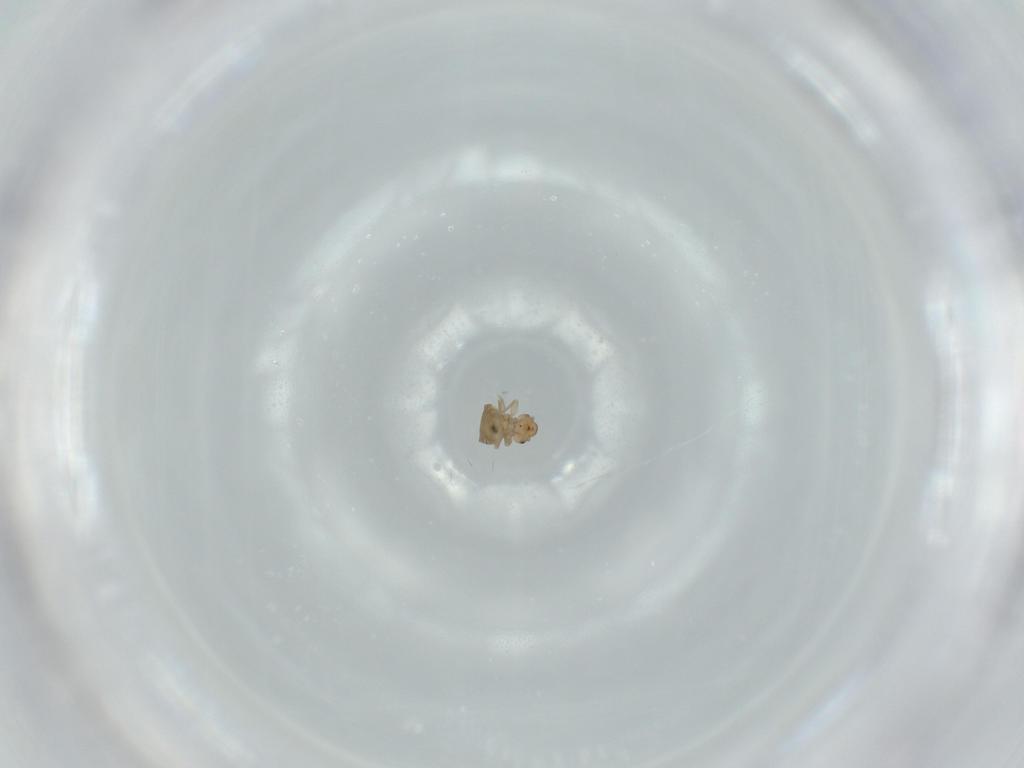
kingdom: Animalia
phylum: Arthropoda
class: Insecta
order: Psocodea
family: Liposcelididae
